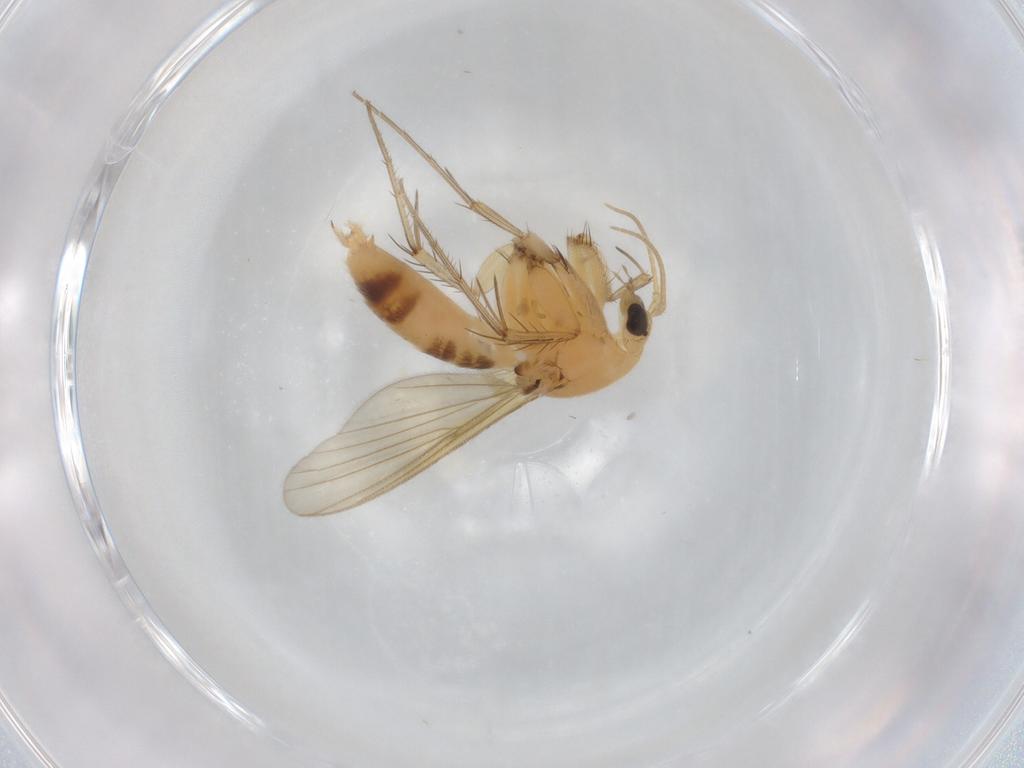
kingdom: Animalia
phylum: Arthropoda
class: Insecta
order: Diptera
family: Mycetophilidae
